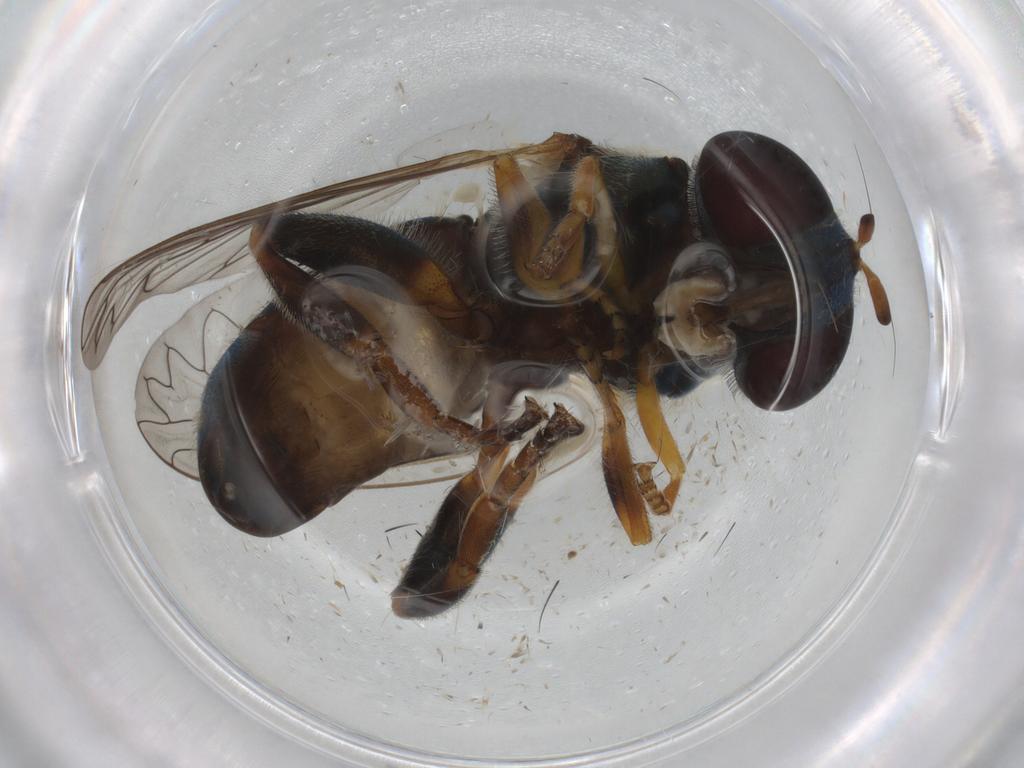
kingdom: Animalia
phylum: Arthropoda
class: Insecta
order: Diptera
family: Syrphidae
